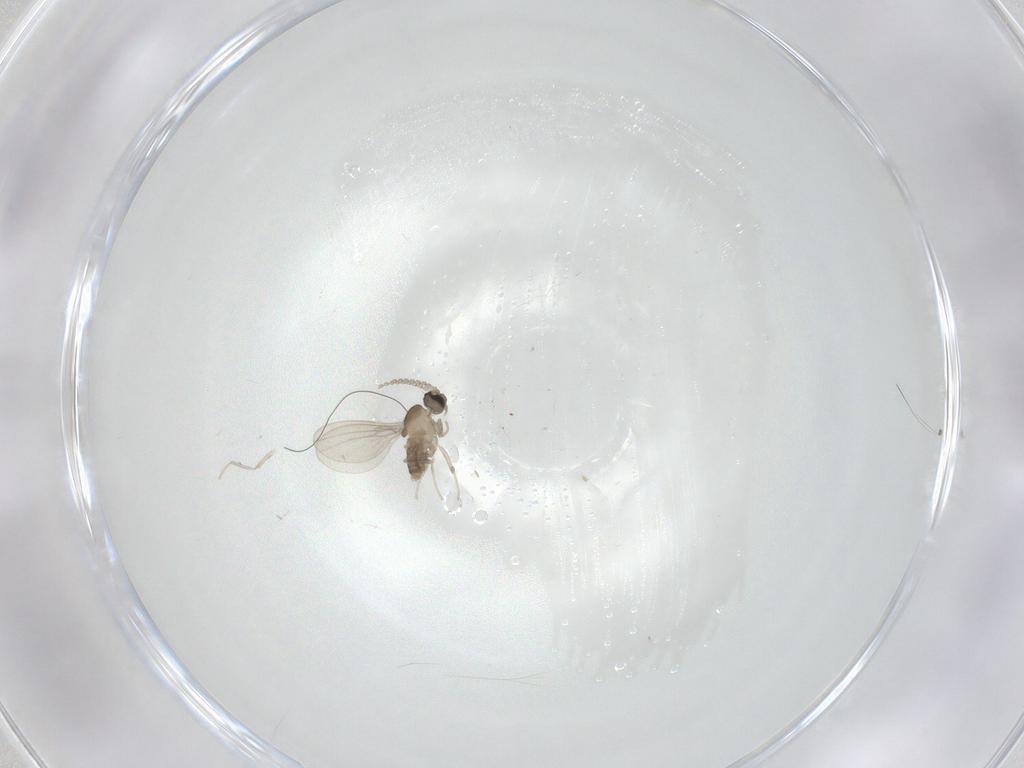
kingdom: Animalia
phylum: Arthropoda
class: Insecta
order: Diptera
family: Cecidomyiidae
